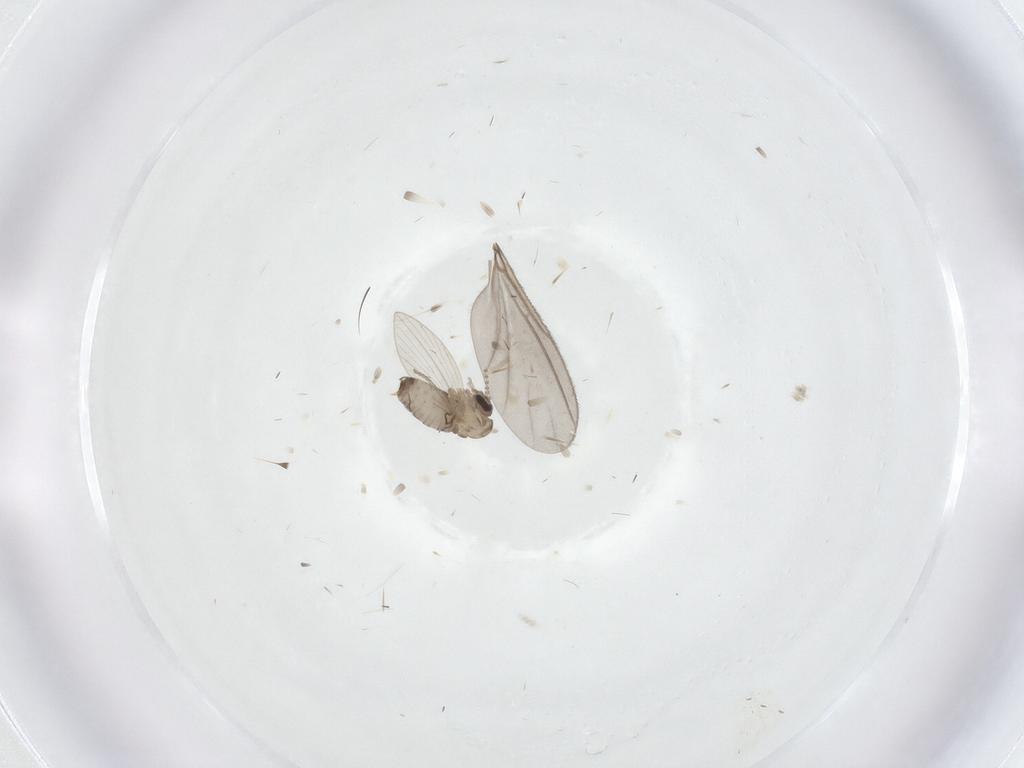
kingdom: Animalia
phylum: Arthropoda
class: Insecta
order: Diptera
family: Psychodidae
